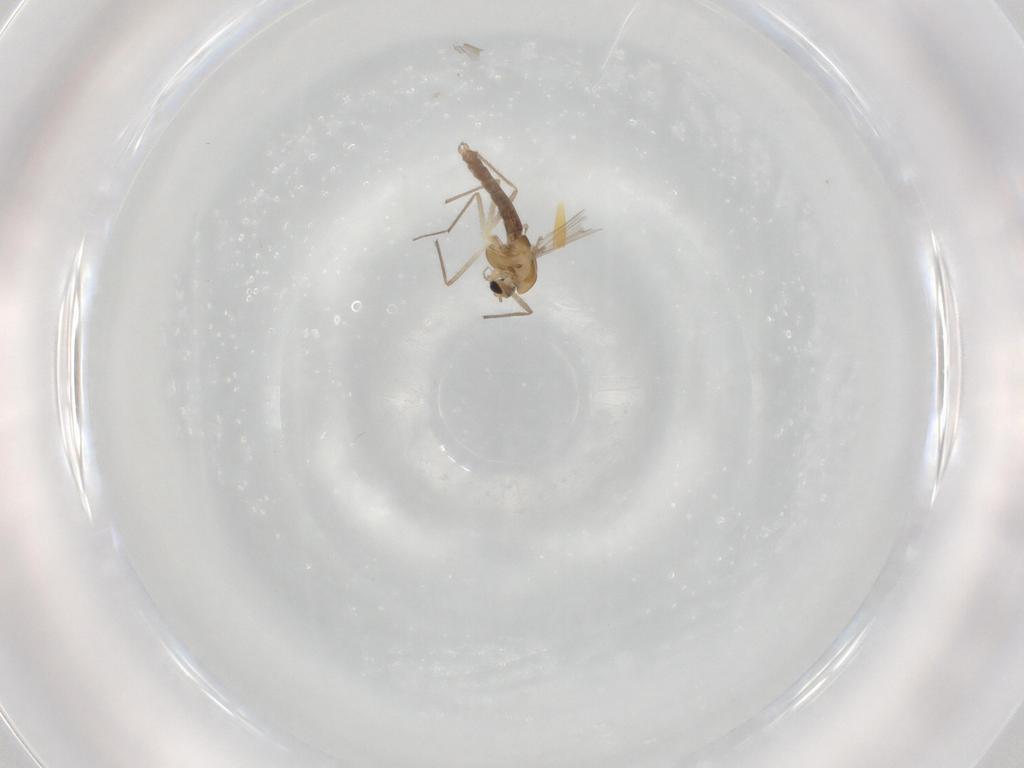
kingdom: Animalia
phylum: Arthropoda
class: Insecta
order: Diptera
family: Chironomidae
